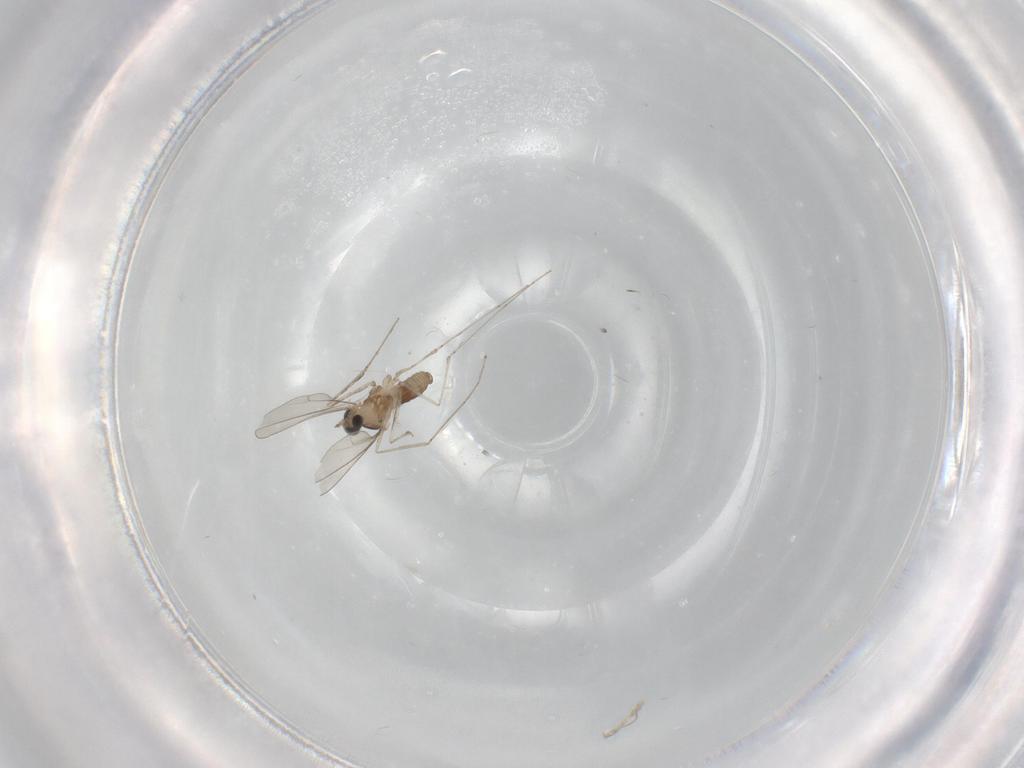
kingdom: Animalia
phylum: Arthropoda
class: Insecta
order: Diptera
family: Cecidomyiidae
